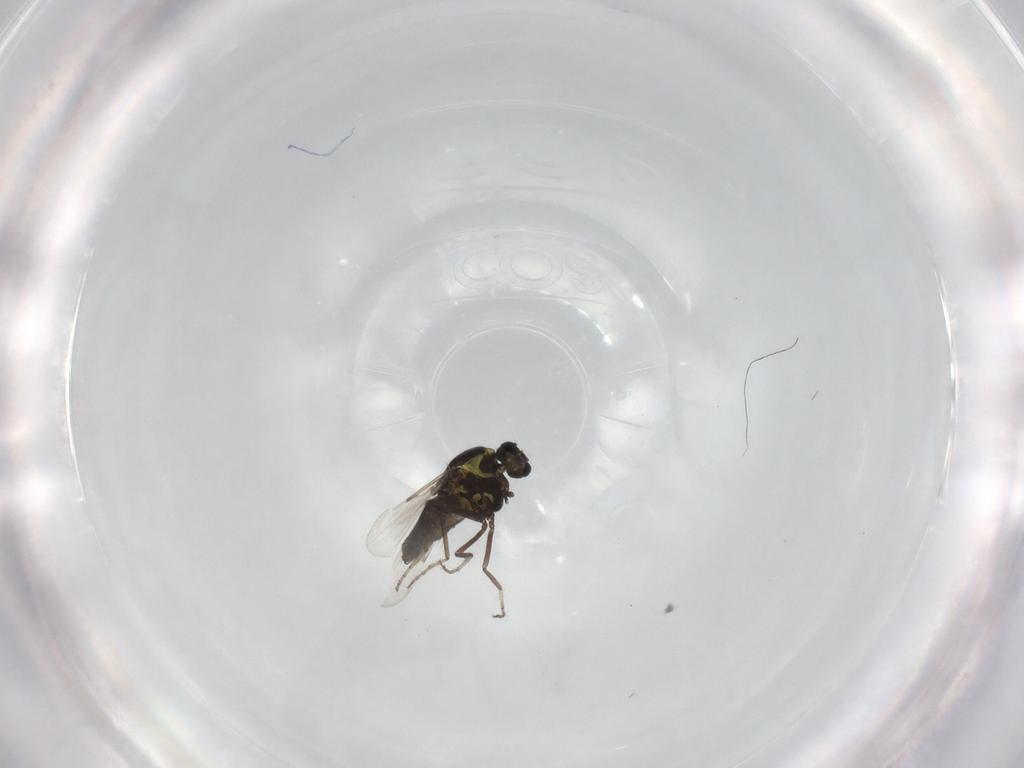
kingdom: Animalia
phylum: Arthropoda
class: Insecta
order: Diptera
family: Ceratopogonidae
